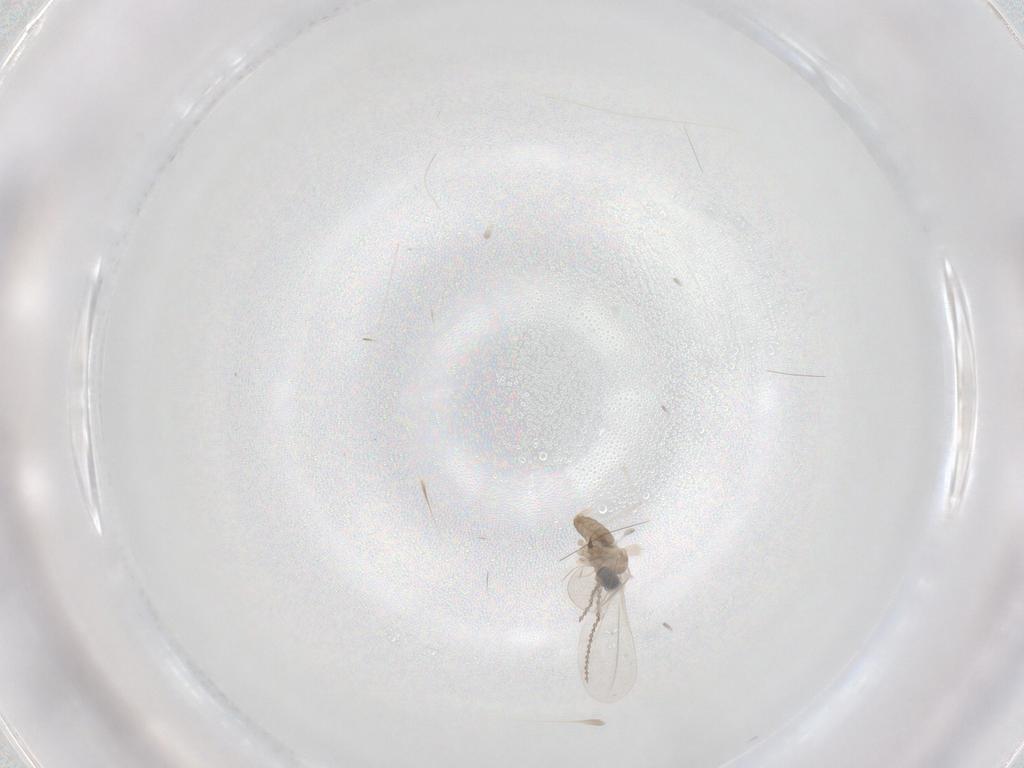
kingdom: Animalia
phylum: Arthropoda
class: Insecta
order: Diptera
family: Cecidomyiidae
